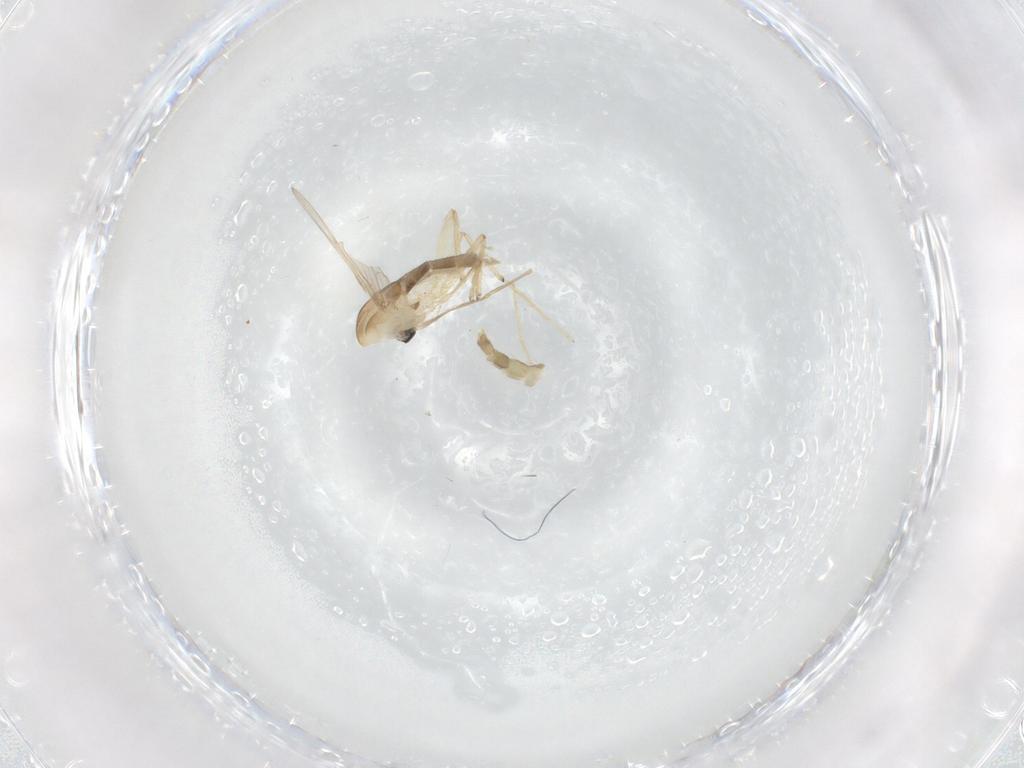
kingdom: Animalia
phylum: Arthropoda
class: Insecta
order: Diptera
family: Chironomidae
